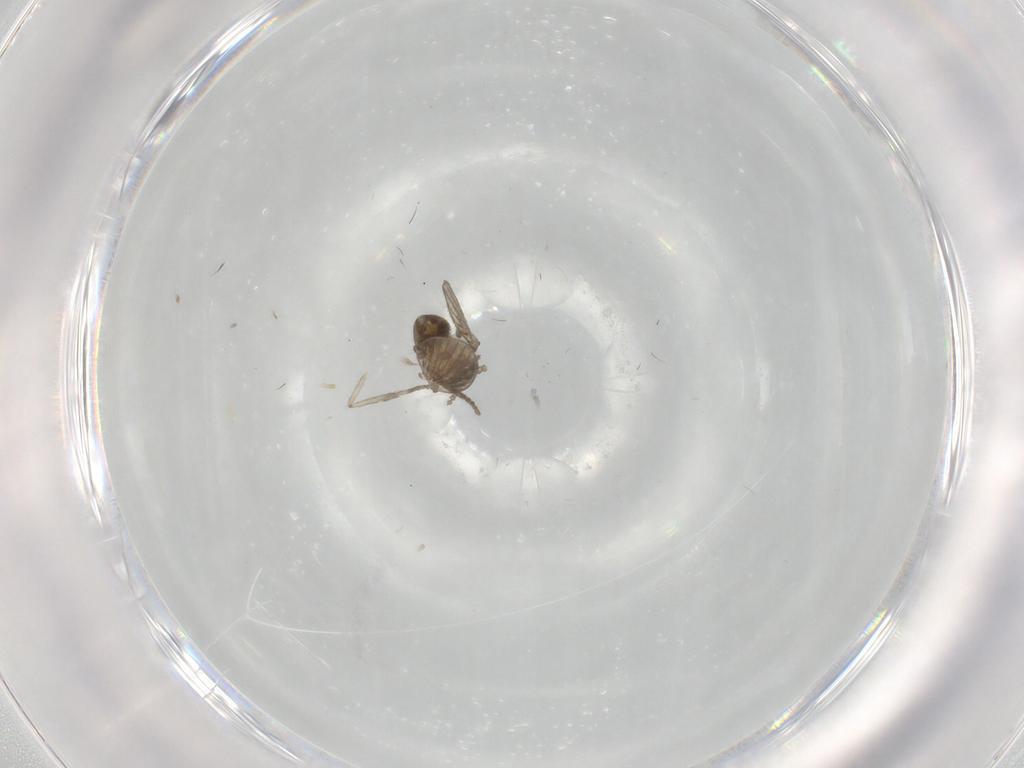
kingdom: Animalia
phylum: Arthropoda
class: Insecta
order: Diptera
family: Psychodidae
